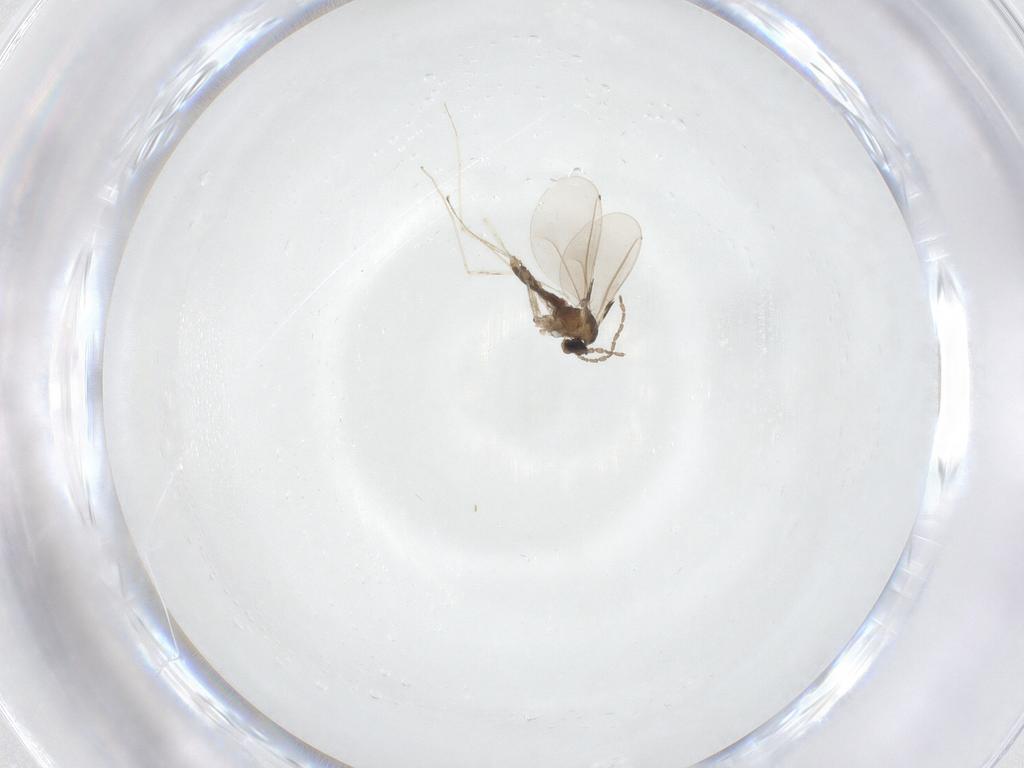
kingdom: Animalia
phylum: Arthropoda
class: Insecta
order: Diptera
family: Cecidomyiidae
